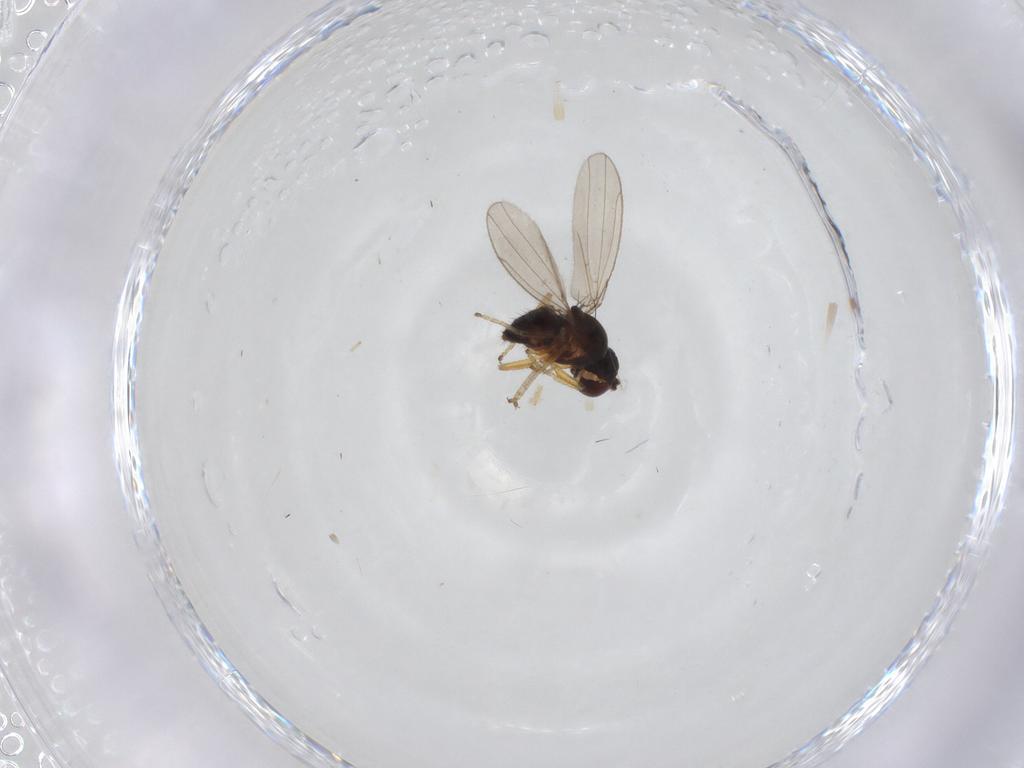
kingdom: Animalia
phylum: Arthropoda
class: Insecta
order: Diptera
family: Ephydridae
